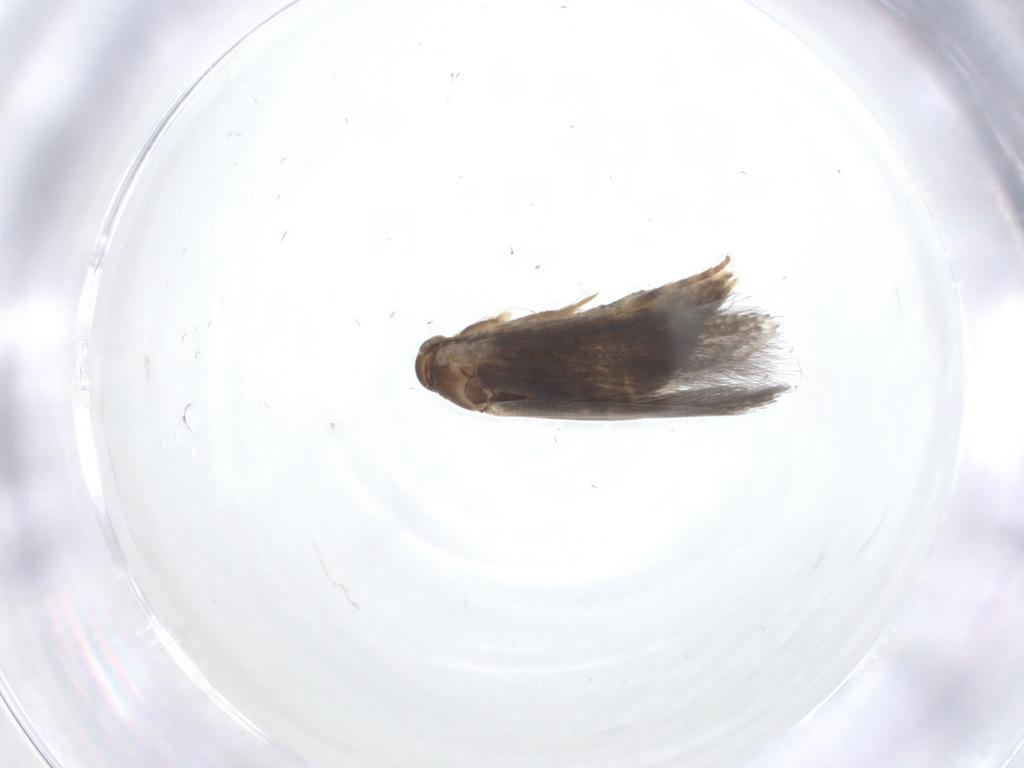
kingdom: Animalia
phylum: Arthropoda
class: Insecta
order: Lepidoptera
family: Elachistidae
